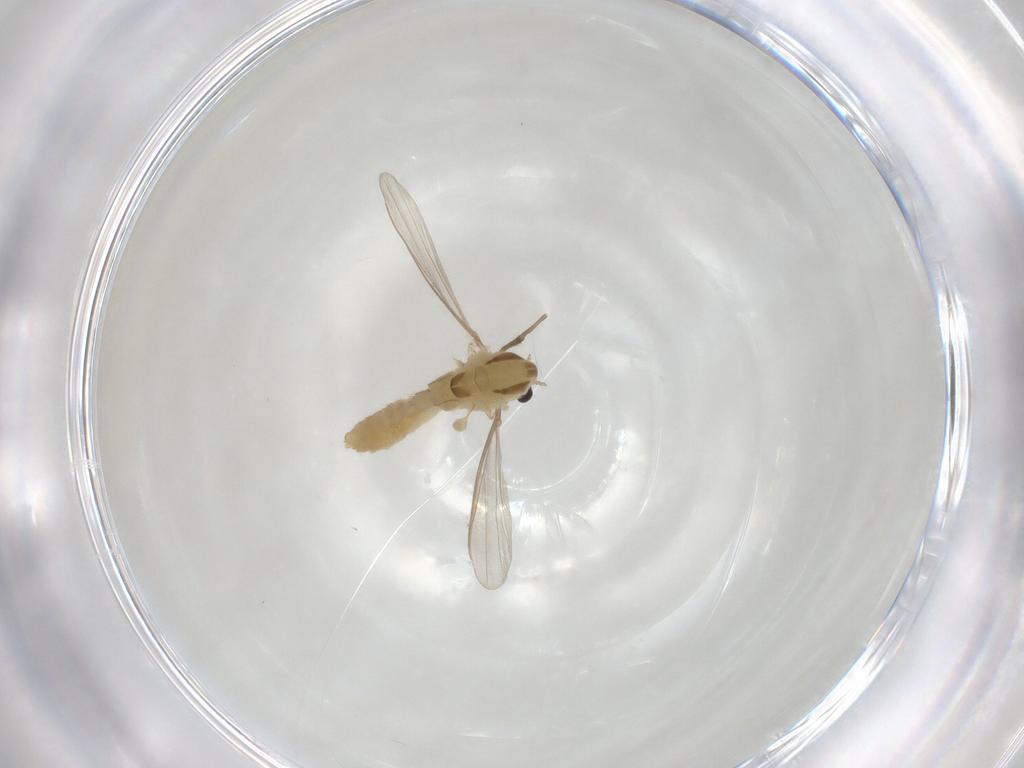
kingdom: Animalia
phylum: Arthropoda
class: Insecta
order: Diptera
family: Chironomidae
